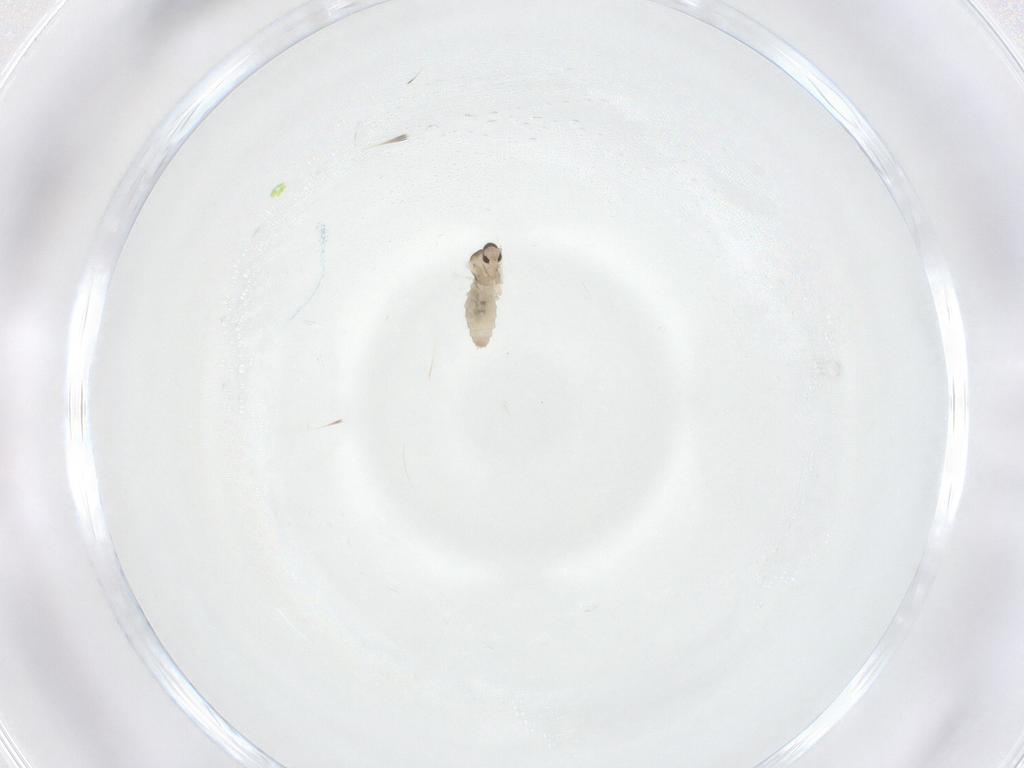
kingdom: Animalia
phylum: Arthropoda
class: Insecta
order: Diptera
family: Cecidomyiidae
